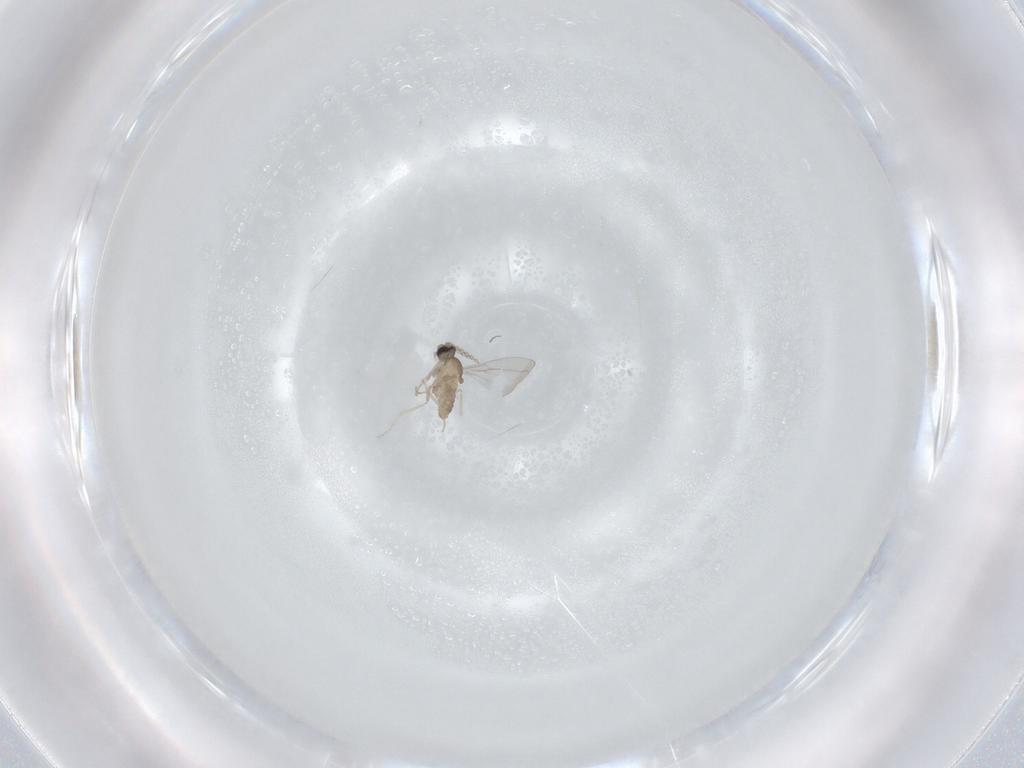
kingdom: Animalia
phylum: Arthropoda
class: Insecta
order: Diptera
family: Cecidomyiidae
